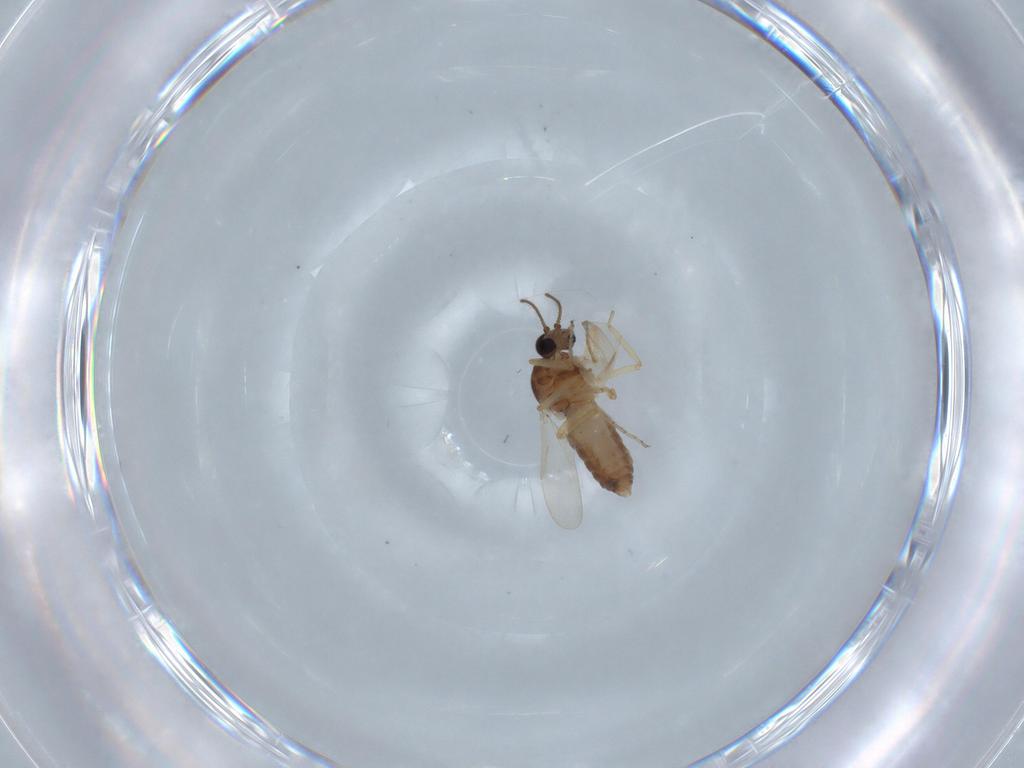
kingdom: Animalia
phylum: Arthropoda
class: Insecta
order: Diptera
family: Ceratopogonidae
